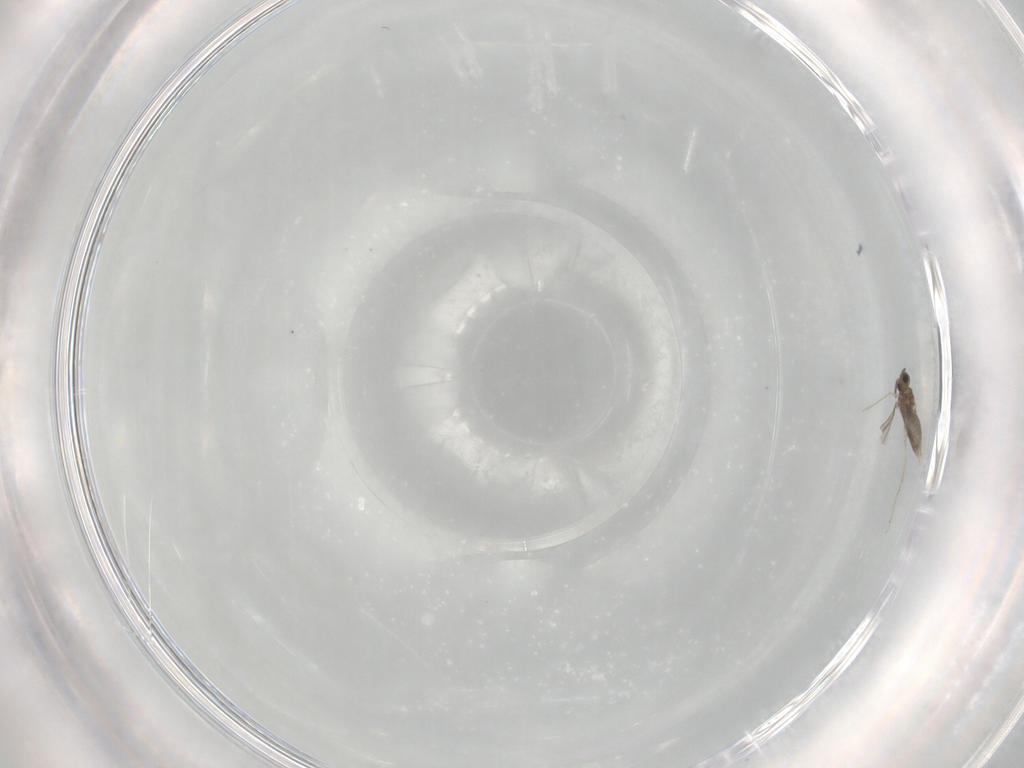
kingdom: Animalia
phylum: Arthropoda
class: Insecta
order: Diptera
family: Cecidomyiidae
